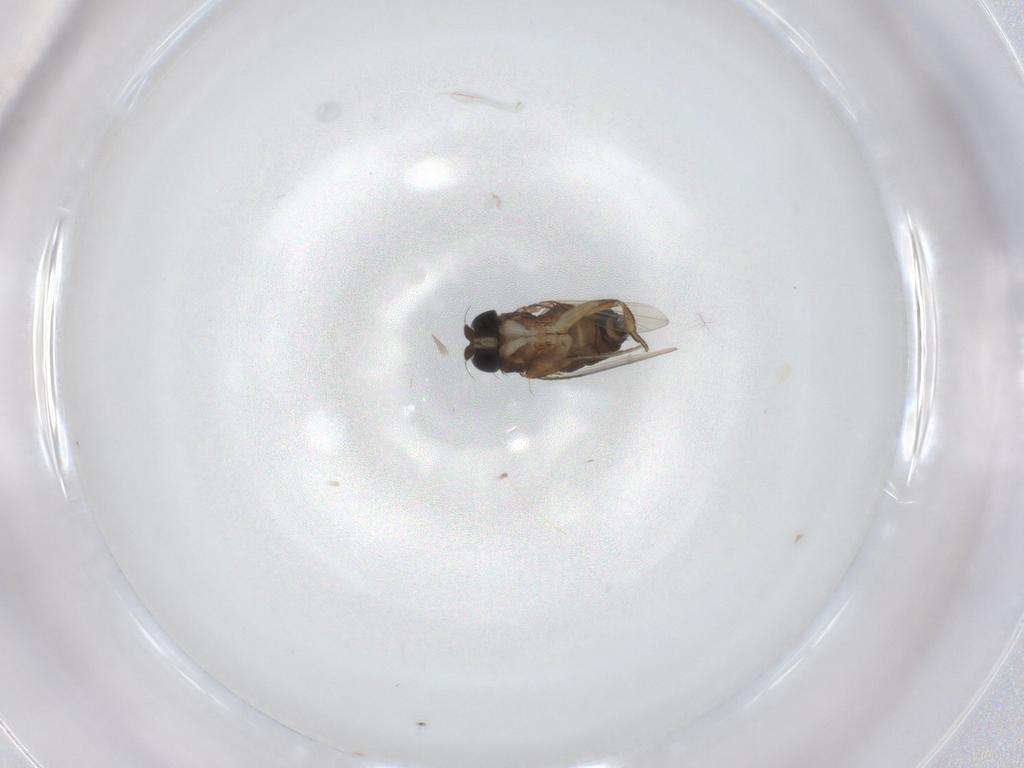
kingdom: Animalia
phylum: Arthropoda
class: Insecta
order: Diptera
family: Phoridae
